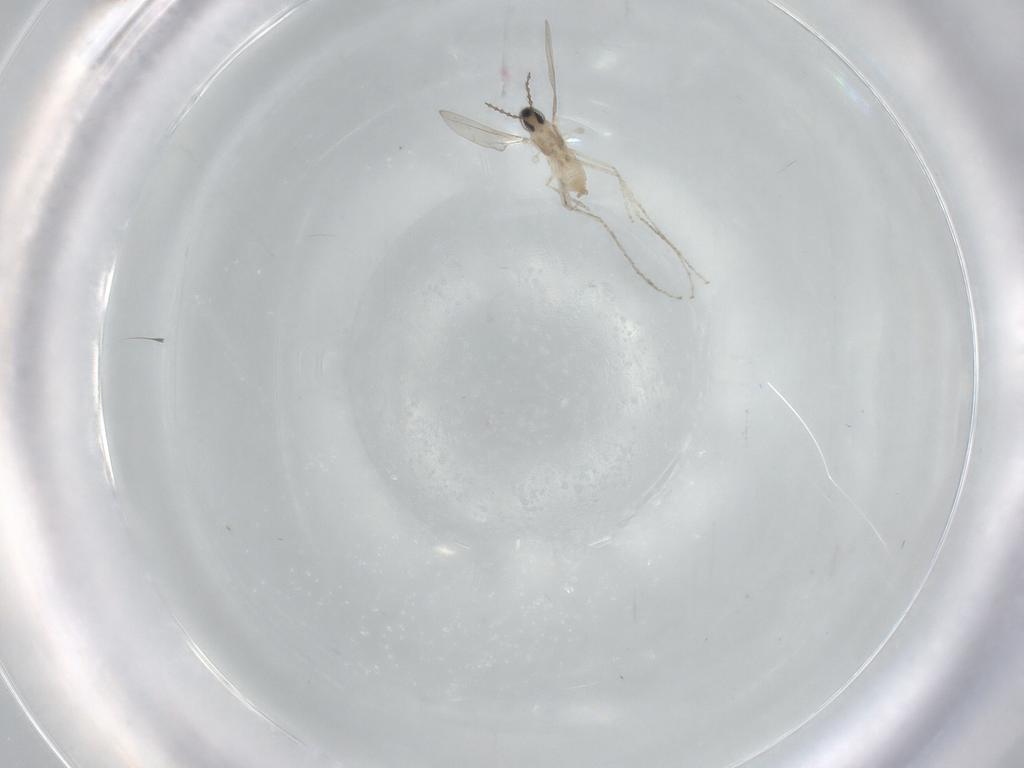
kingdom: Animalia
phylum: Arthropoda
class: Insecta
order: Diptera
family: Cecidomyiidae
